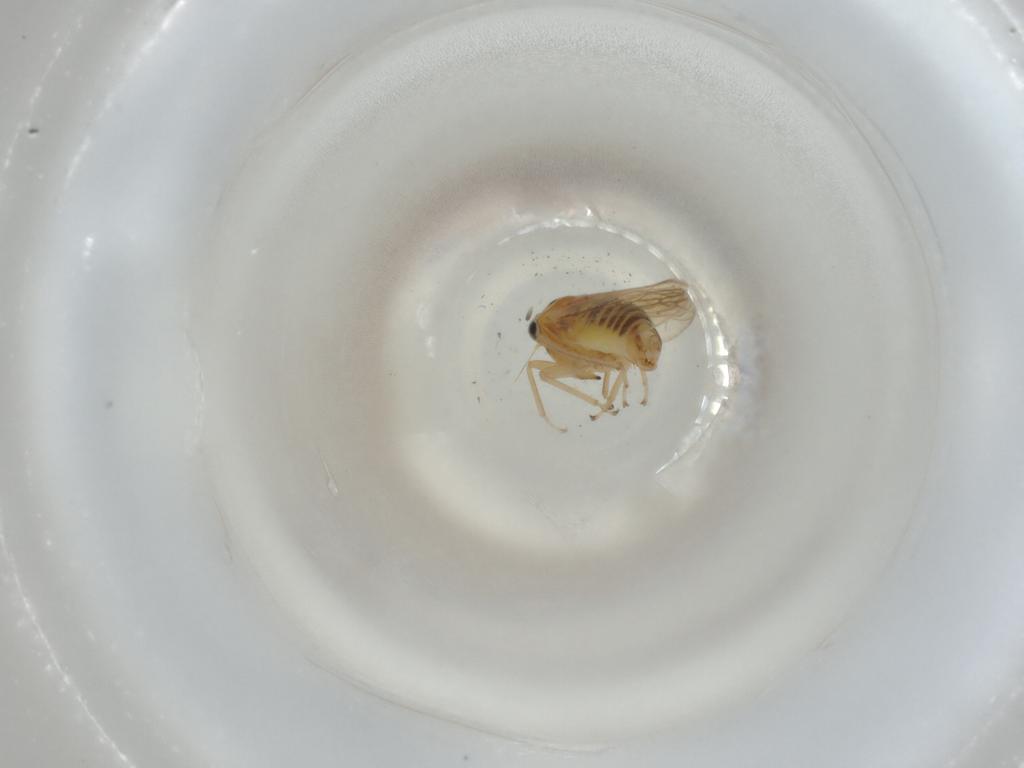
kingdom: Animalia
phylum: Arthropoda
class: Insecta
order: Hemiptera
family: Cicadellidae
